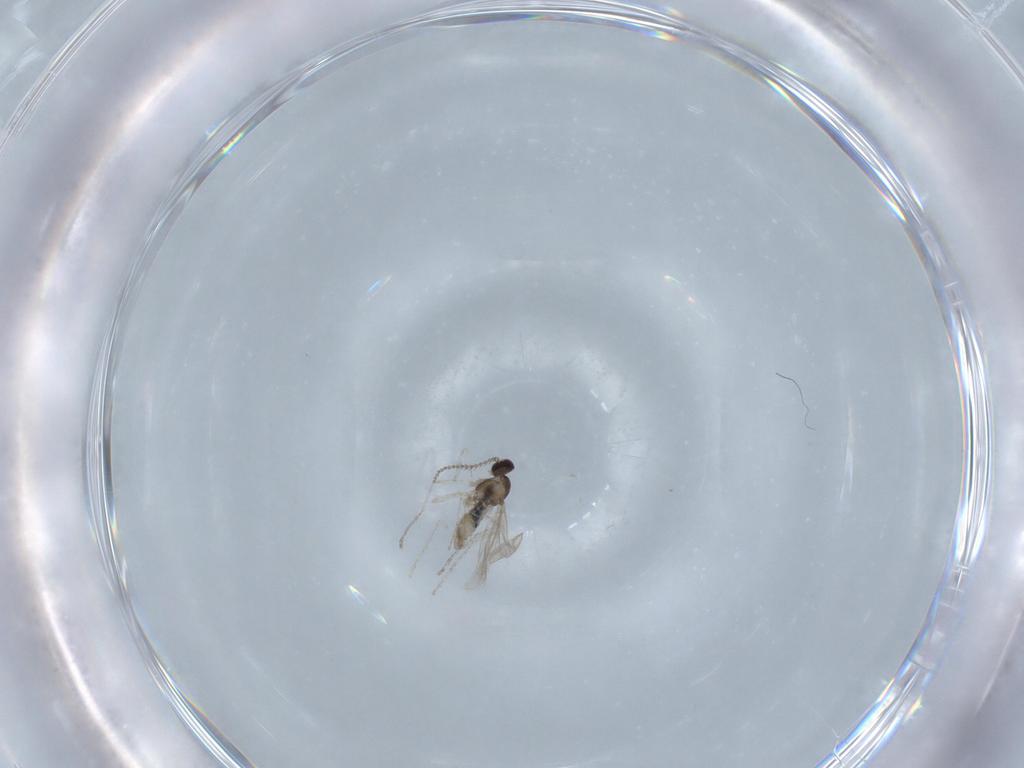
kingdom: Animalia
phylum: Arthropoda
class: Insecta
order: Diptera
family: Cecidomyiidae
